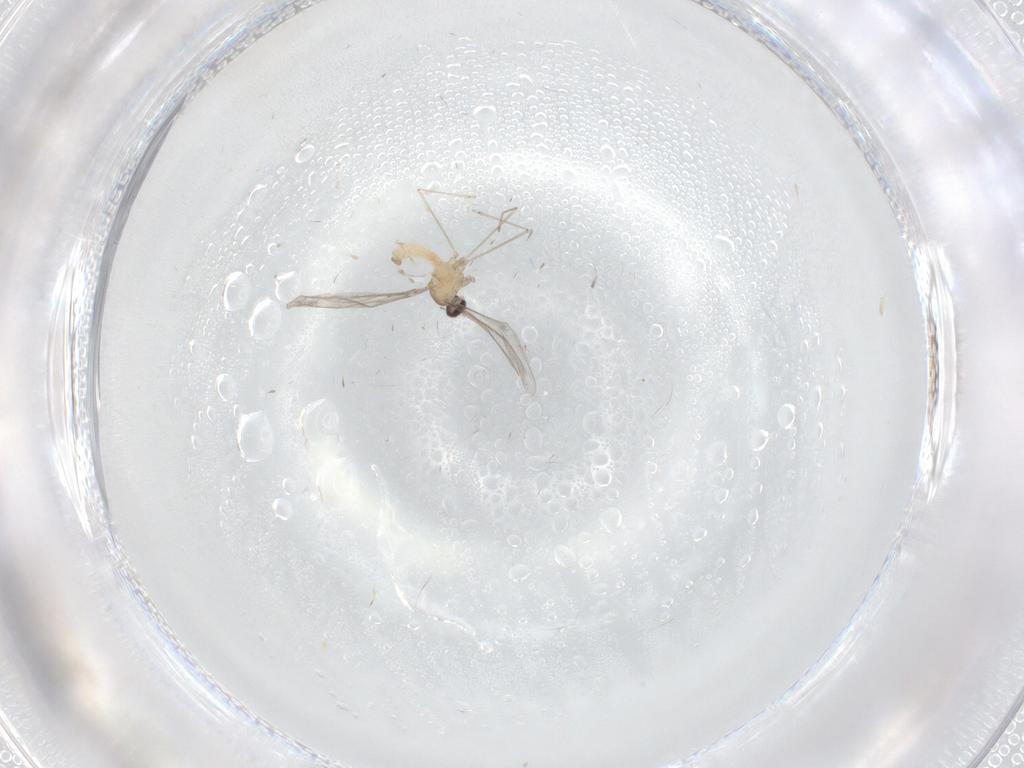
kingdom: Animalia
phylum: Arthropoda
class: Insecta
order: Diptera
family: Cecidomyiidae
